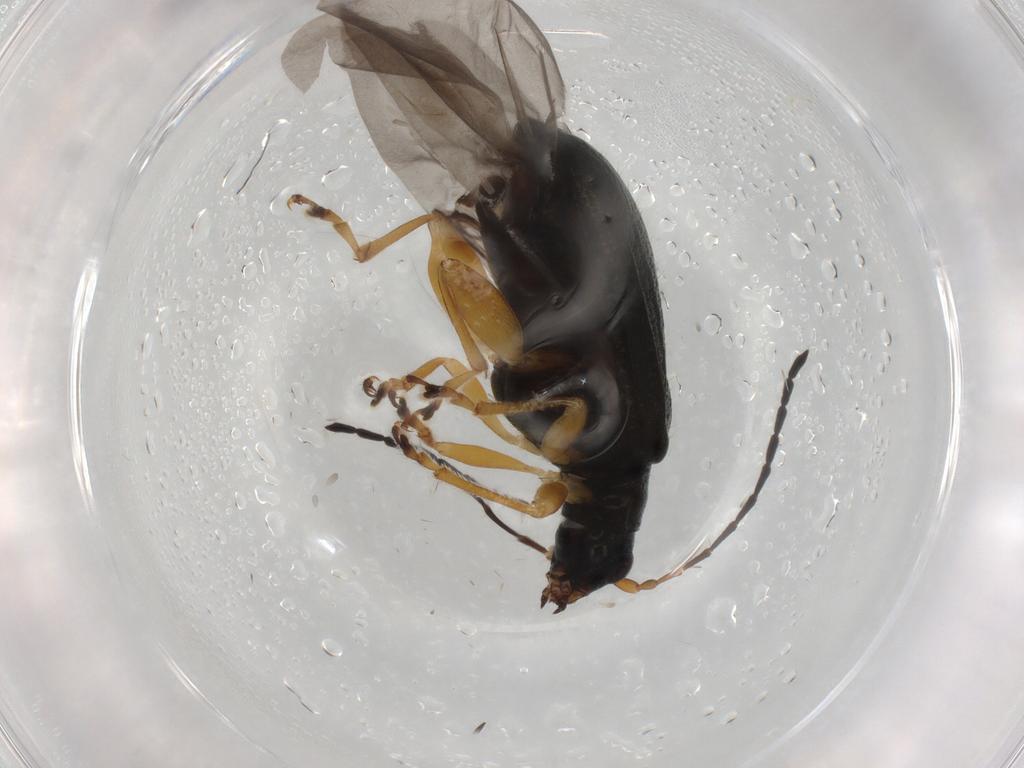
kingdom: Animalia
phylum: Arthropoda
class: Insecta
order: Coleoptera
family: Chrysomelidae
